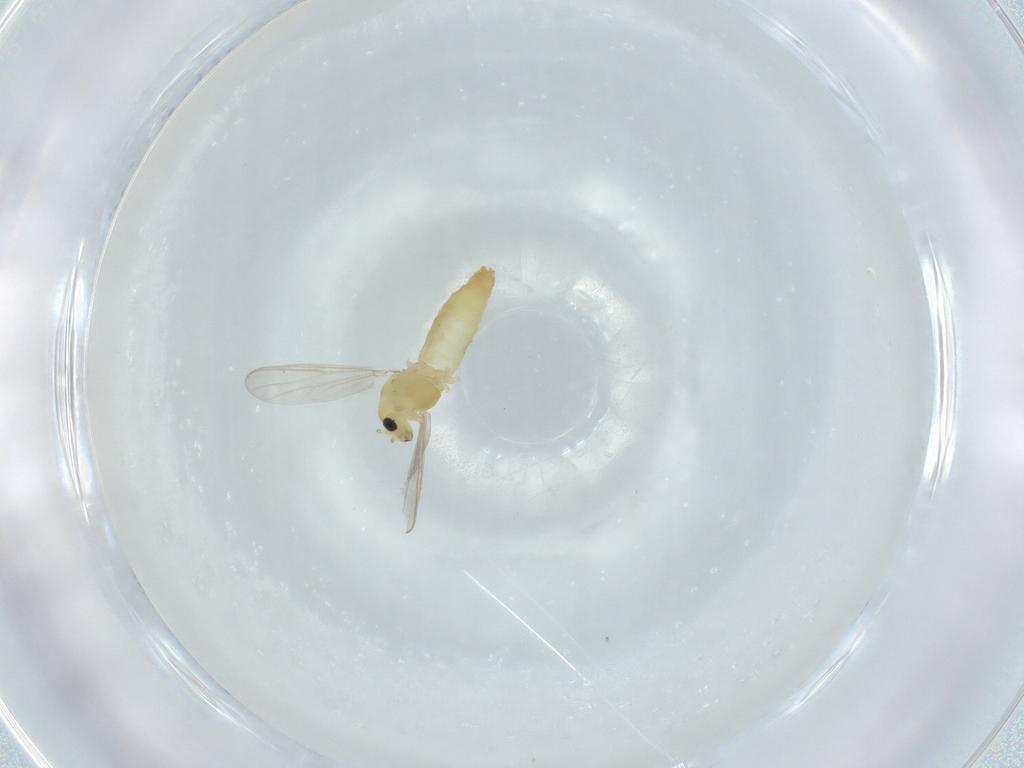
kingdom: Animalia
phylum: Arthropoda
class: Insecta
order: Diptera
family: Chironomidae
